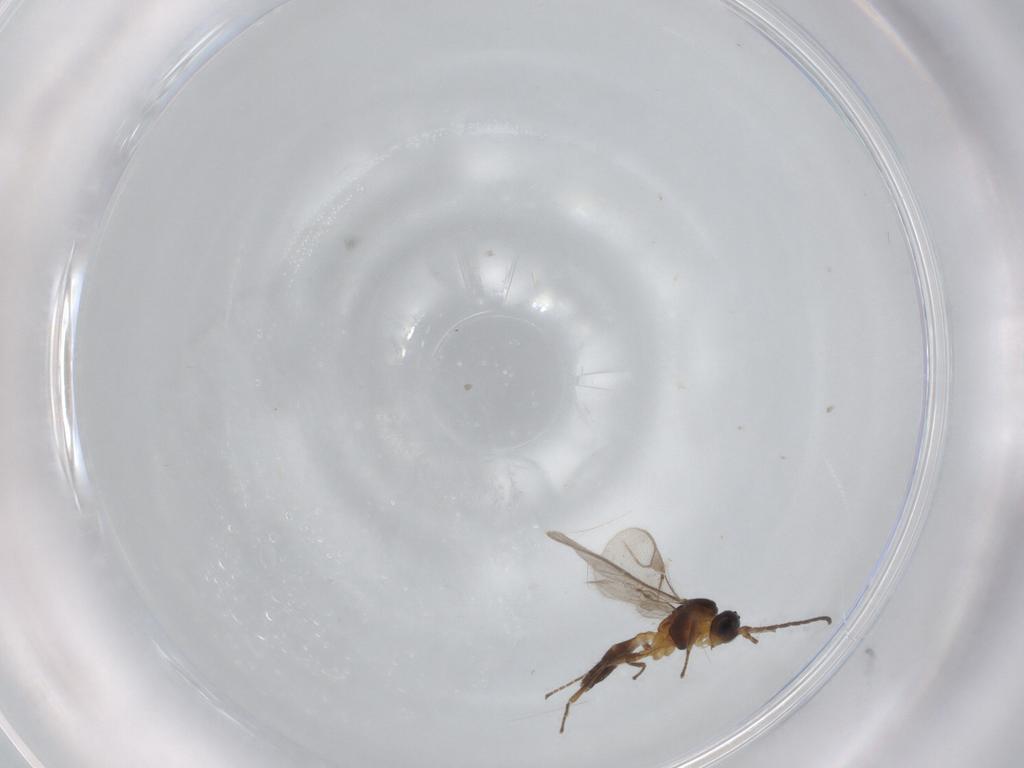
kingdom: Animalia
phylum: Arthropoda
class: Insecta
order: Hymenoptera
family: Braconidae
